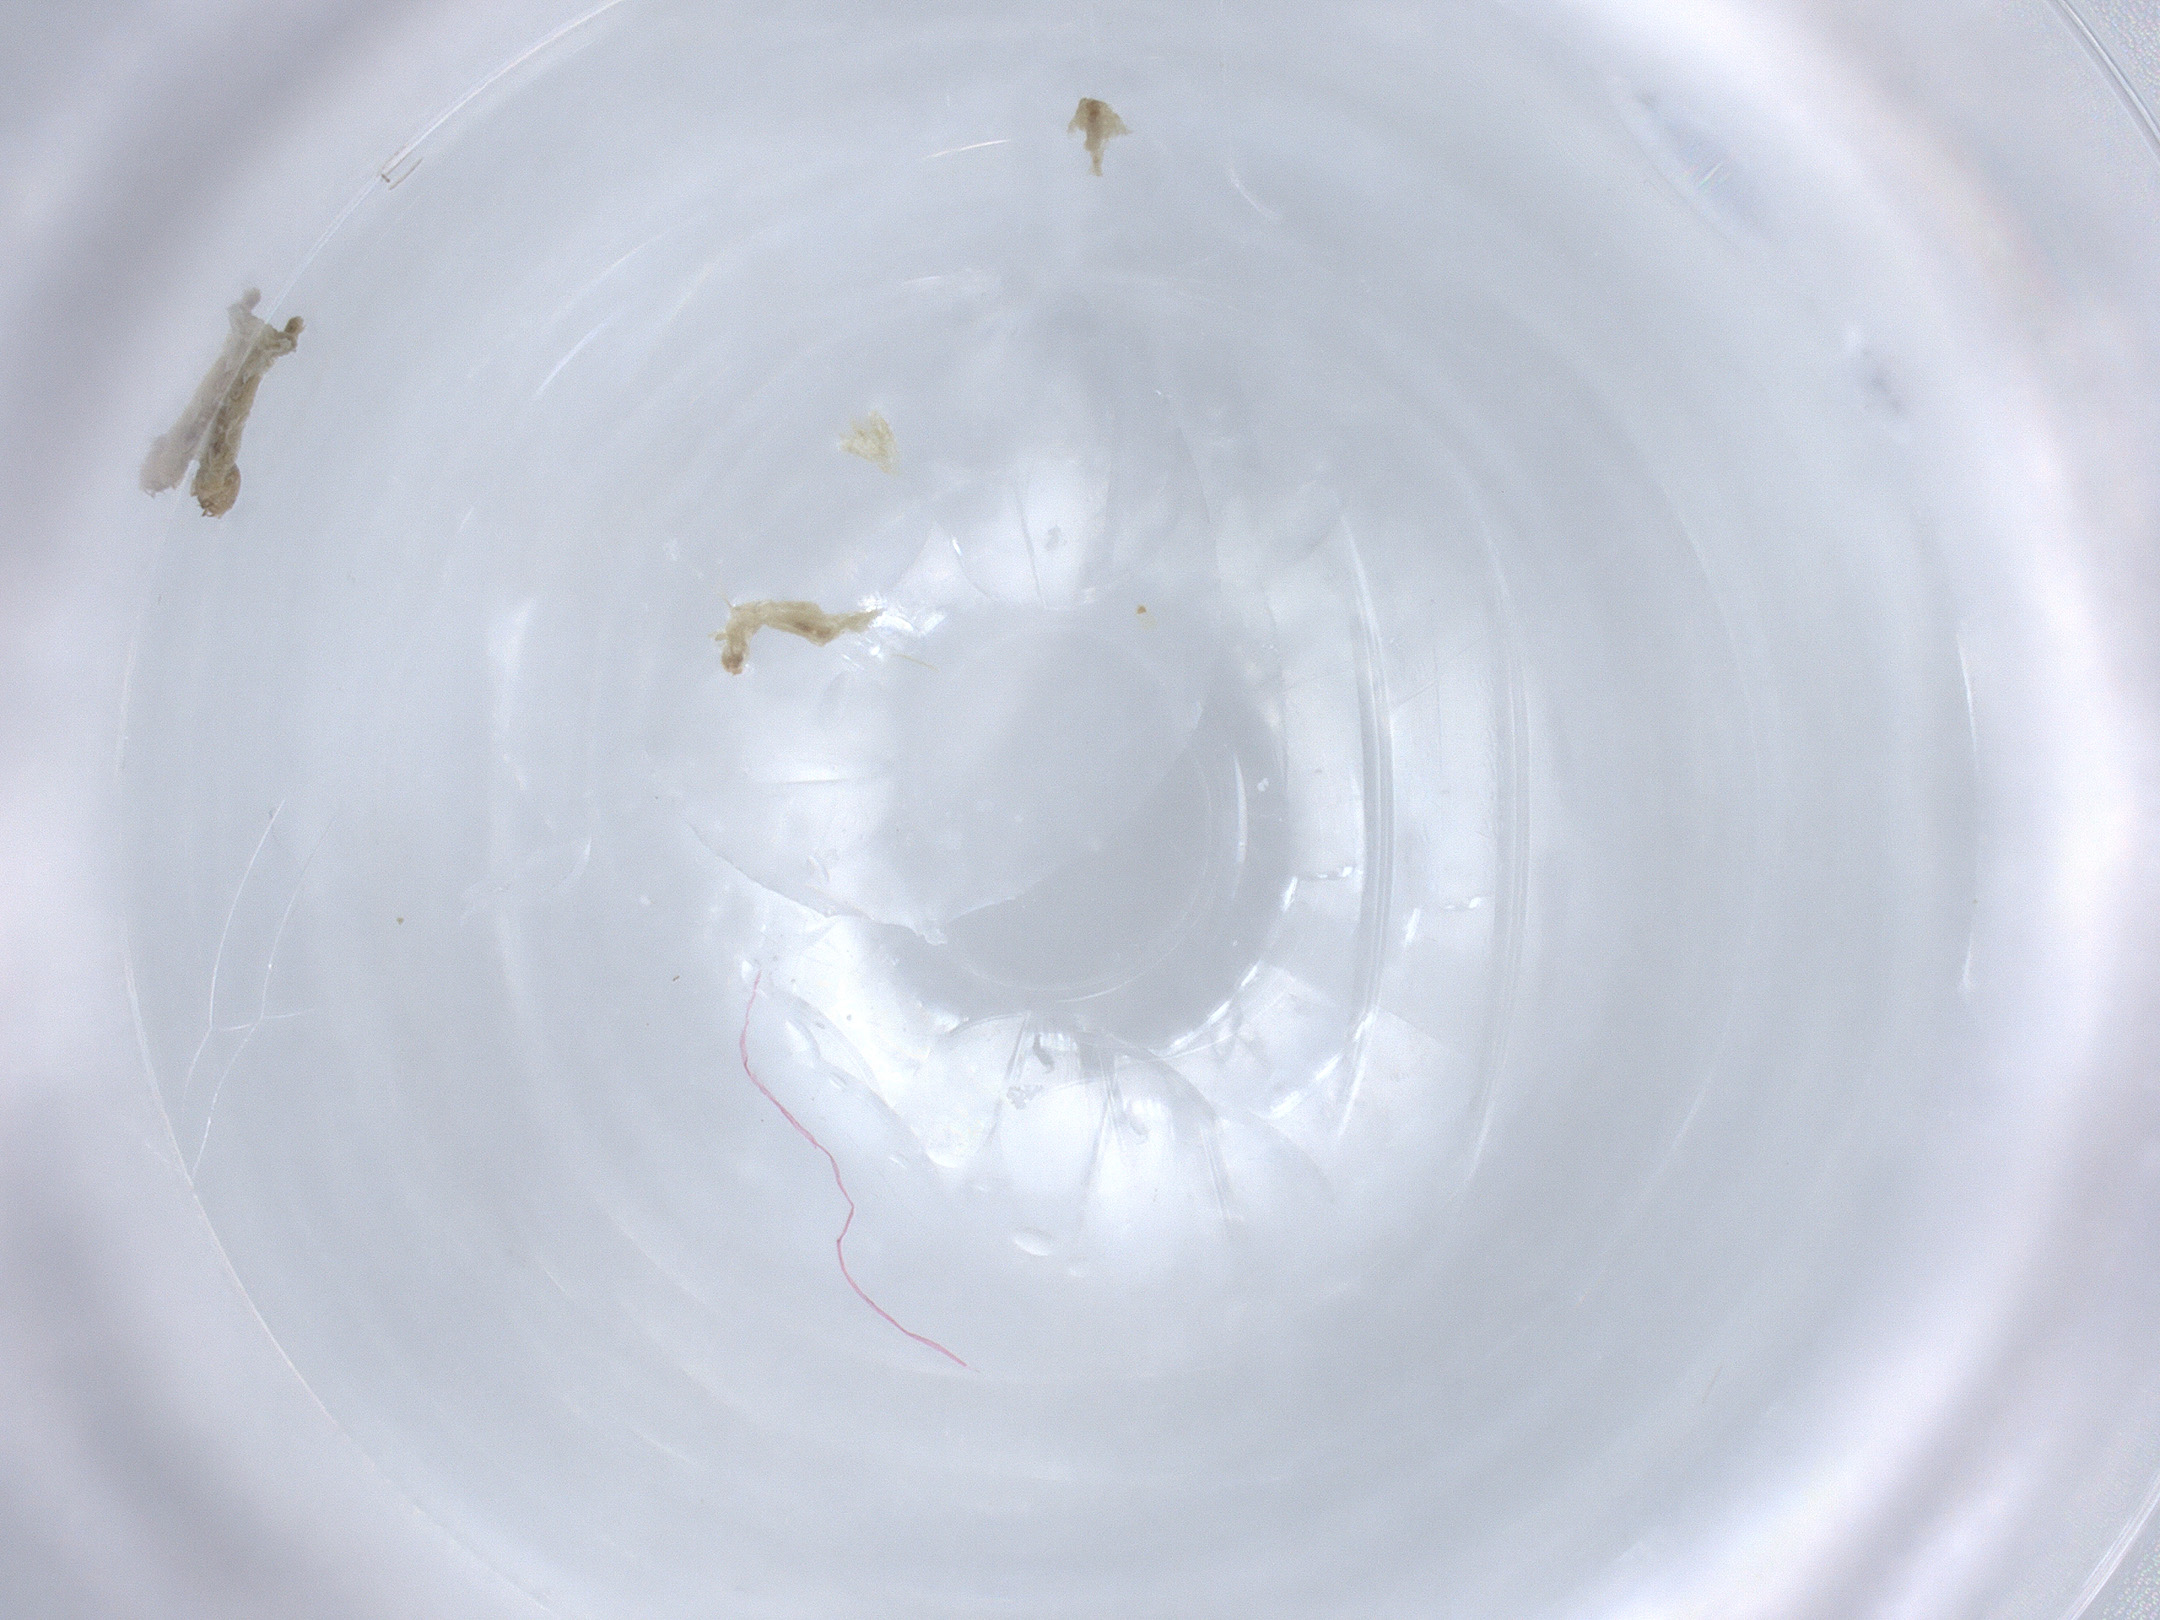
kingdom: Animalia
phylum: Arthropoda
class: Insecta
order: Diptera
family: Chironomidae
